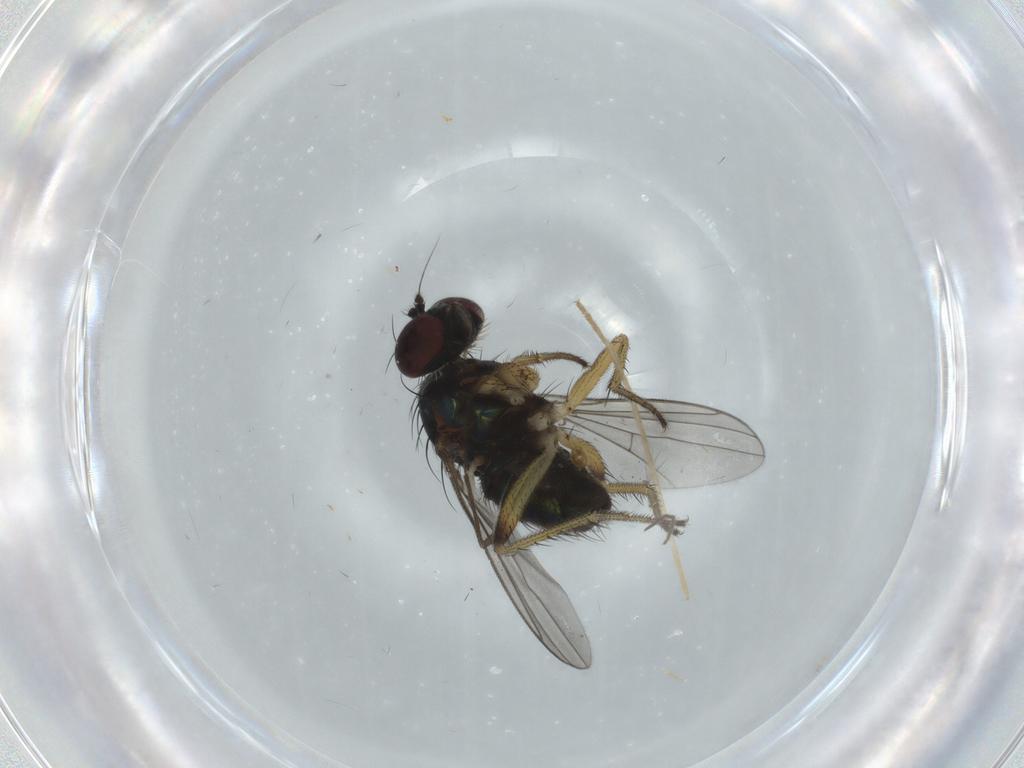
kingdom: Animalia
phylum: Arthropoda
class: Insecta
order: Diptera
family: Dolichopodidae
